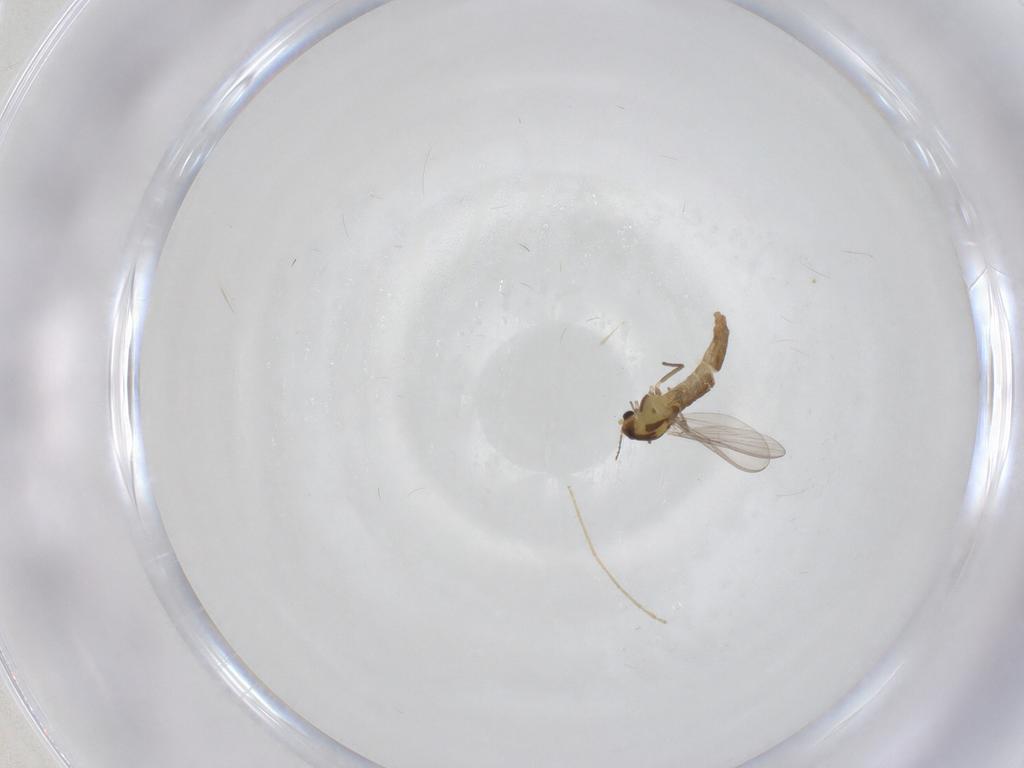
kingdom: Animalia
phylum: Arthropoda
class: Insecta
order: Diptera
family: Chironomidae
